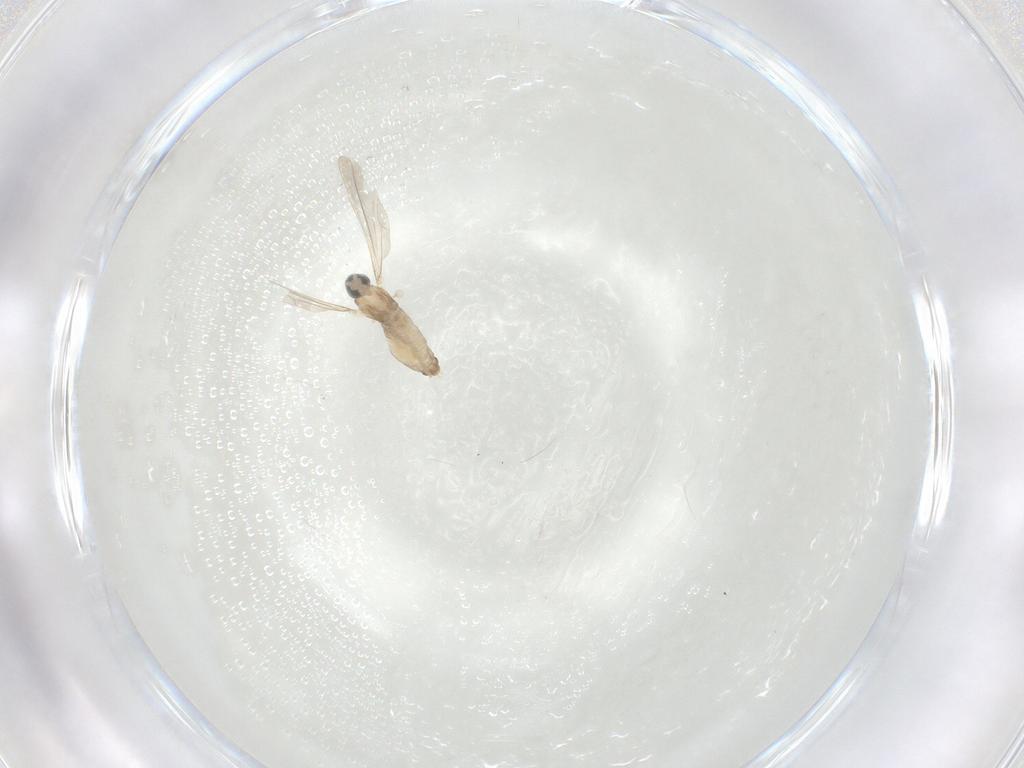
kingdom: Animalia
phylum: Arthropoda
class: Insecta
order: Diptera
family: Cecidomyiidae
